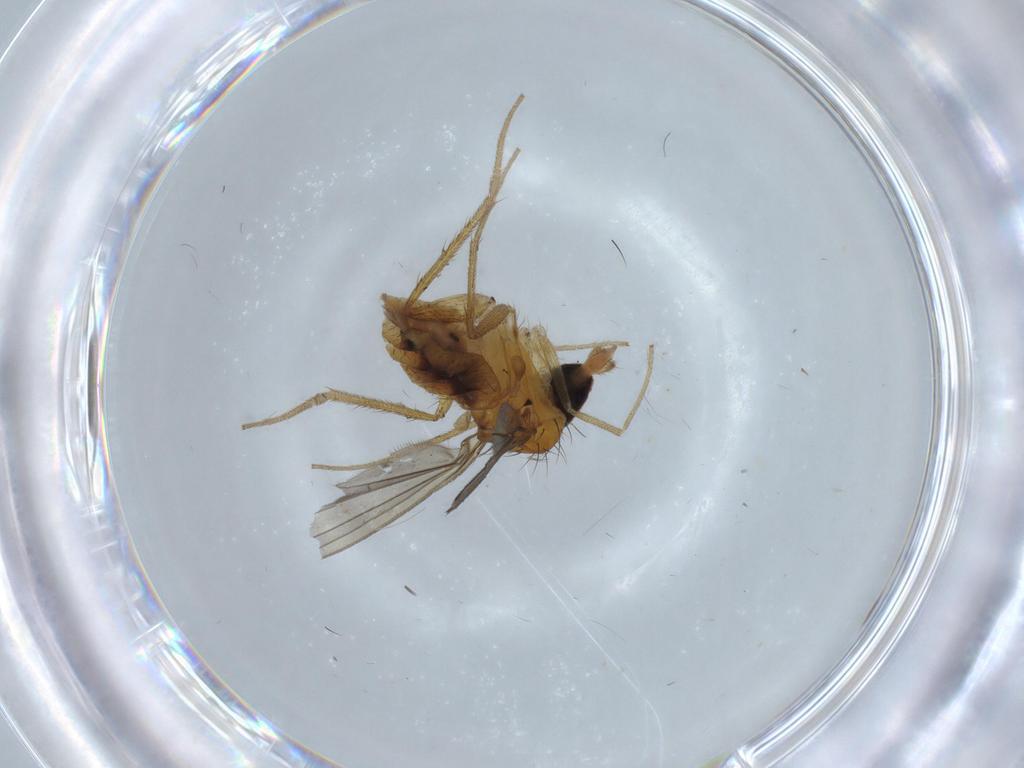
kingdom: Animalia
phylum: Arthropoda
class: Insecta
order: Diptera
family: Dolichopodidae
